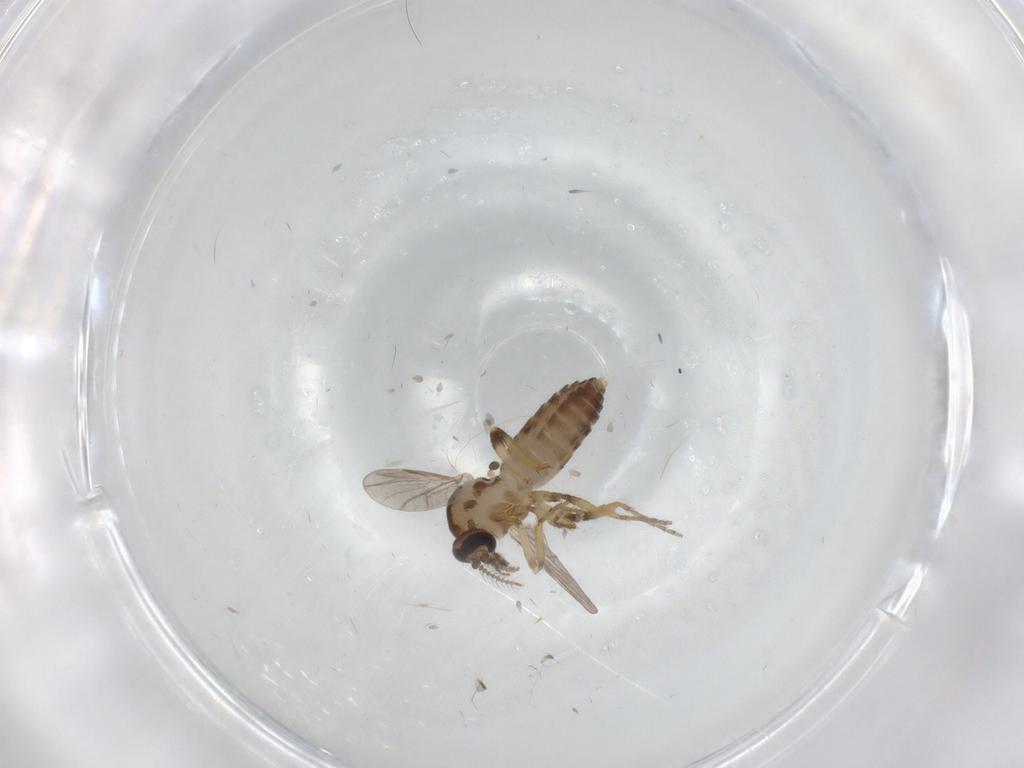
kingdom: Animalia
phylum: Arthropoda
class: Insecta
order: Diptera
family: Ceratopogonidae
